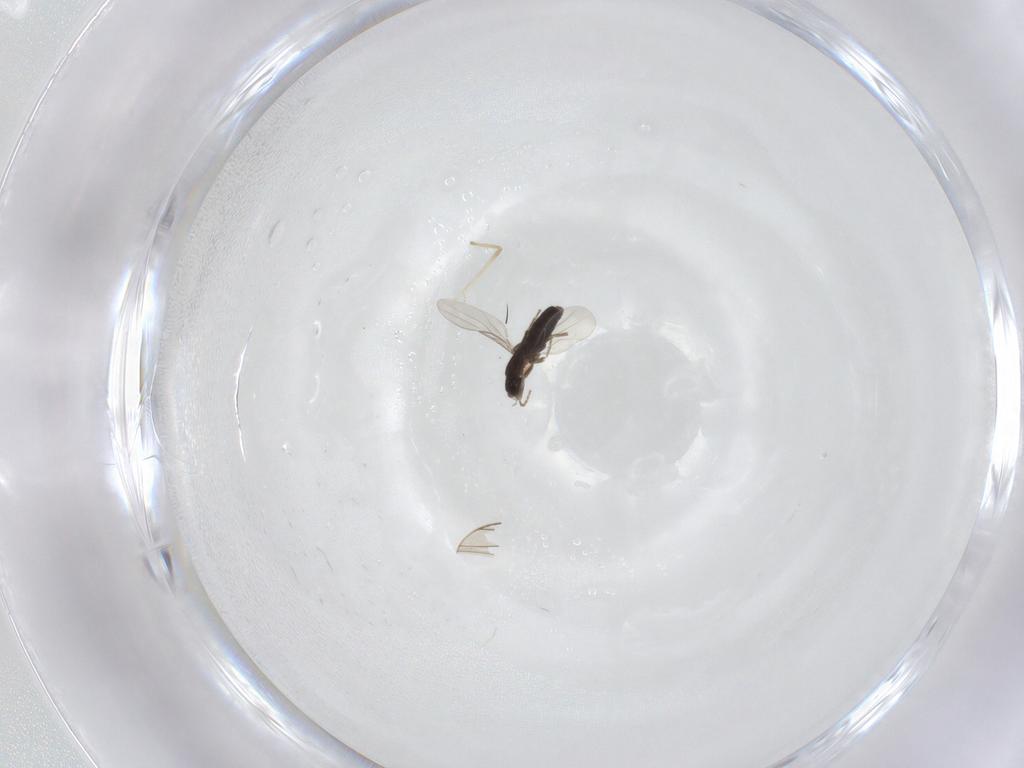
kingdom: Animalia
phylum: Arthropoda
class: Insecta
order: Diptera
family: Phoridae
